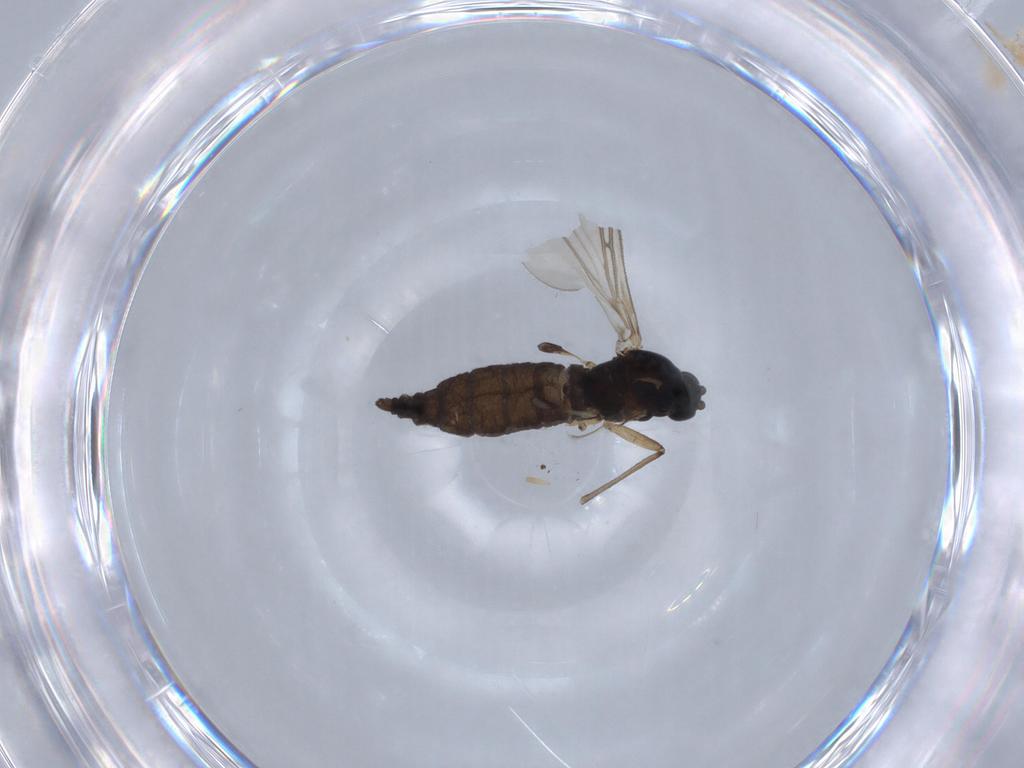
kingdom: Animalia
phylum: Arthropoda
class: Insecta
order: Diptera
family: Sciaridae
